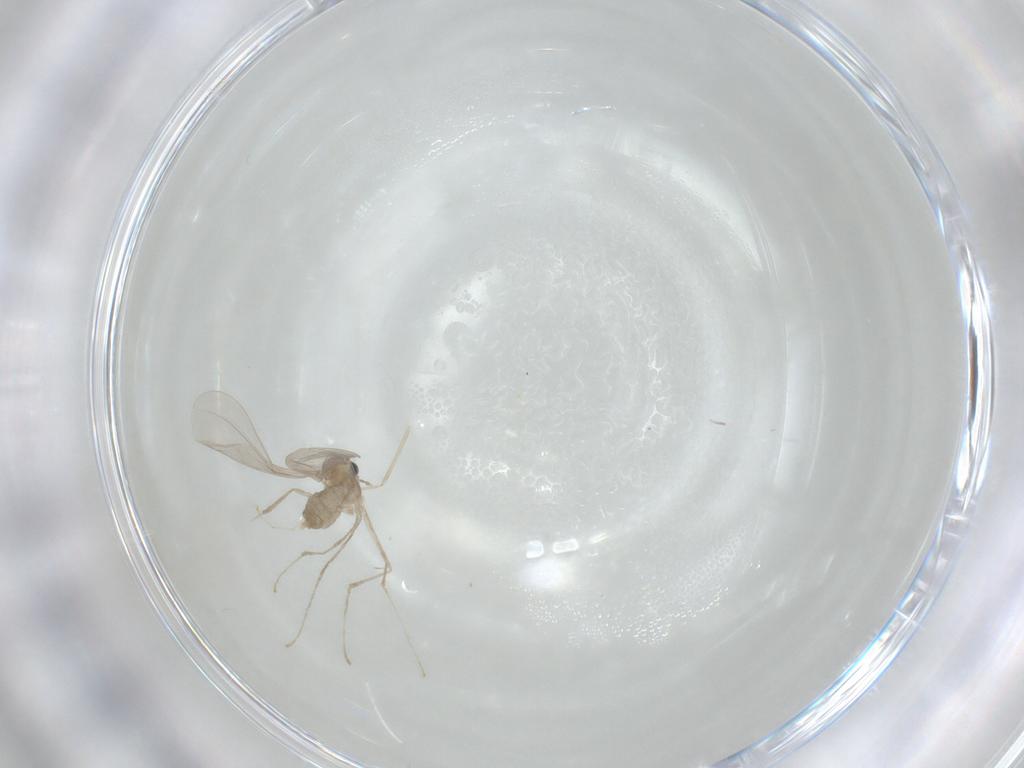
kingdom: Animalia
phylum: Arthropoda
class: Insecta
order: Diptera
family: Cecidomyiidae
